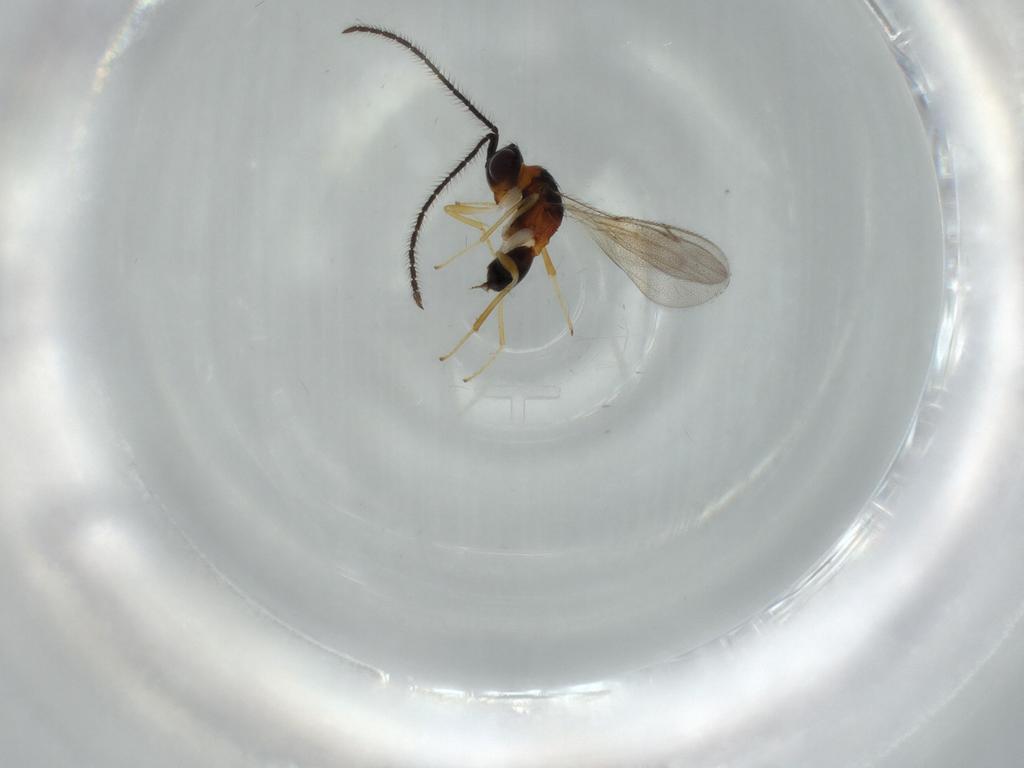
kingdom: Animalia
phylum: Arthropoda
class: Insecta
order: Hymenoptera
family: Diparidae
